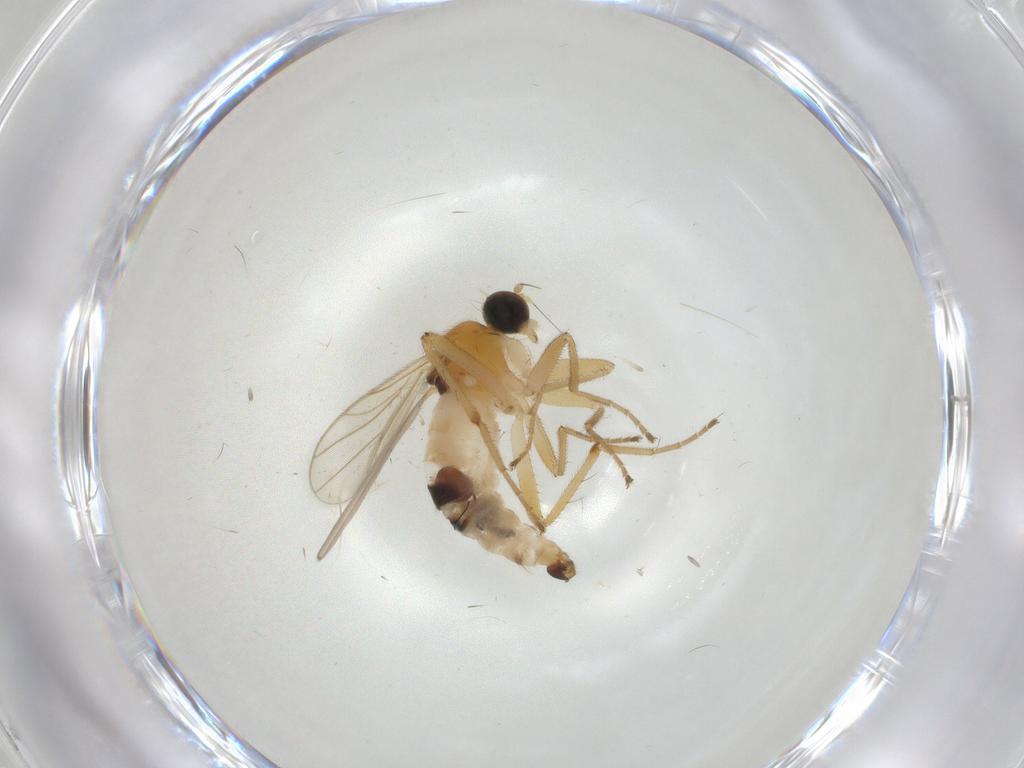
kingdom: Animalia
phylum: Arthropoda
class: Insecta
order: Diptera
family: Hybotidae
